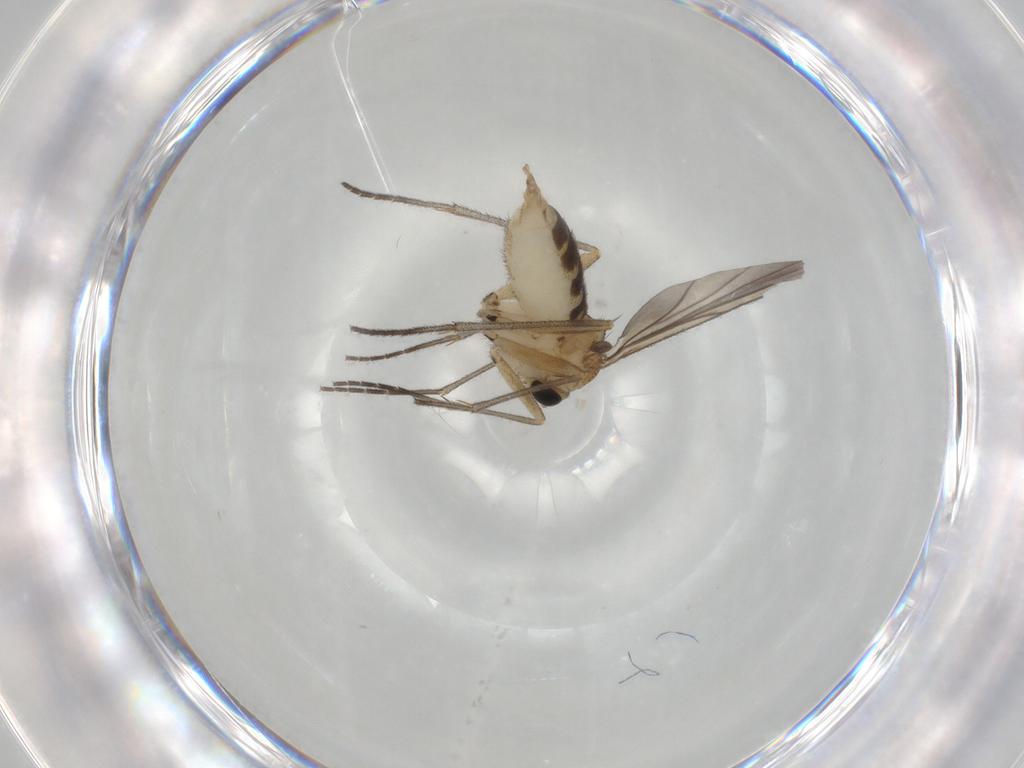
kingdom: Animalia
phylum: Arthropoda
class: Insecta
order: Diptera
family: Sciaridae
